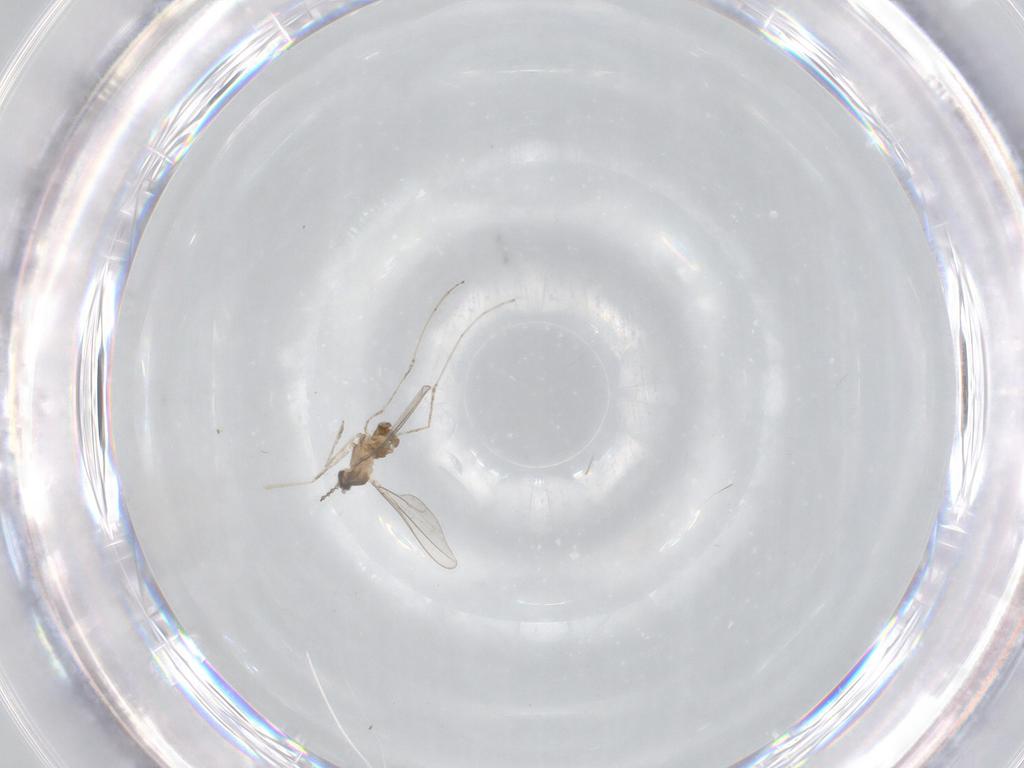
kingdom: Animalia
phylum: Arthropoda
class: Insecta
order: Diptera
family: Cecidomyiidae
